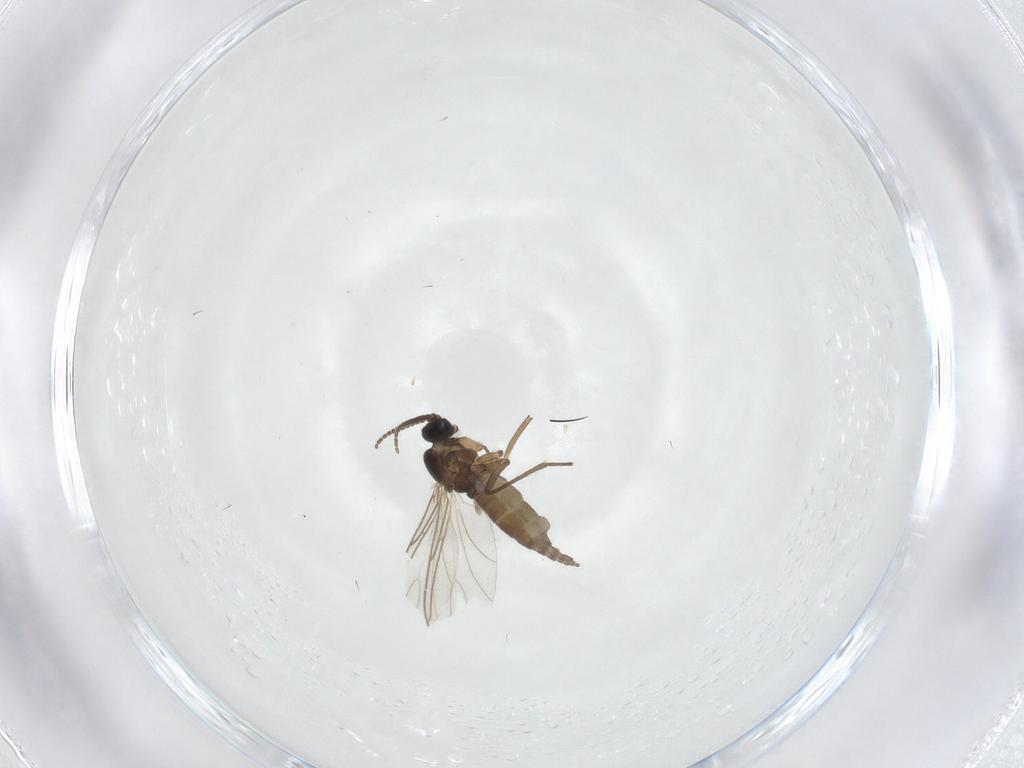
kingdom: Animalia
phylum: Arthropoda
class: Insecta
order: Diptera
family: Sciaridae
